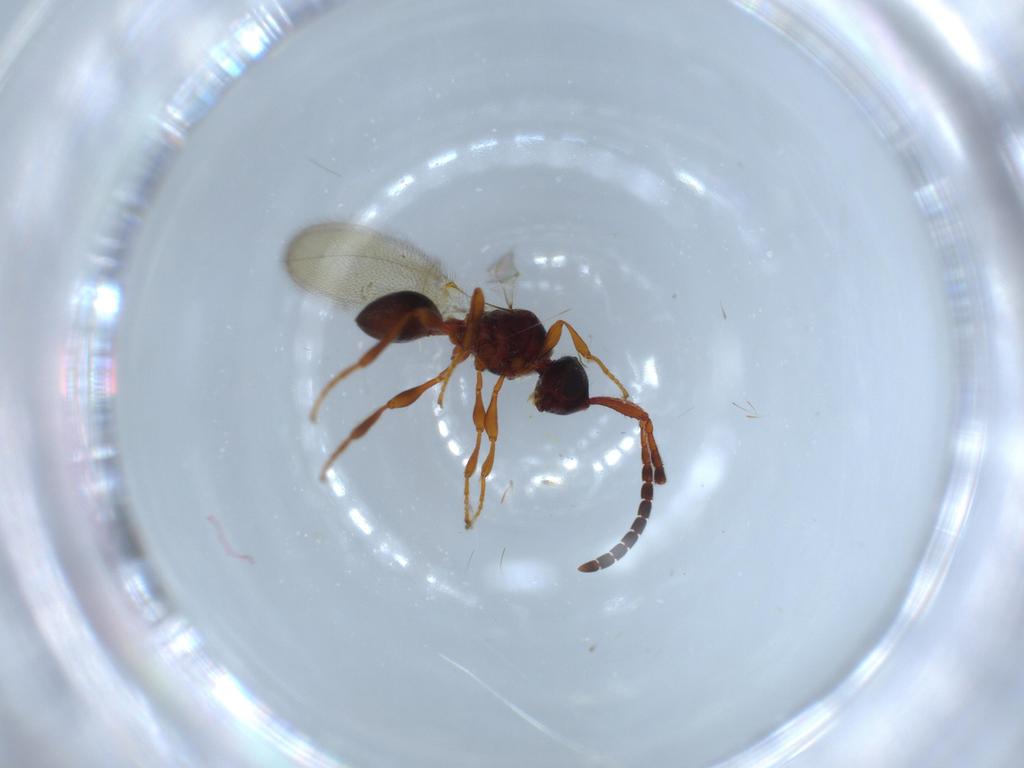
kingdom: Animalia
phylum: Arthropoda
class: Insecta
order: Hymenoptera
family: Diapriidae
